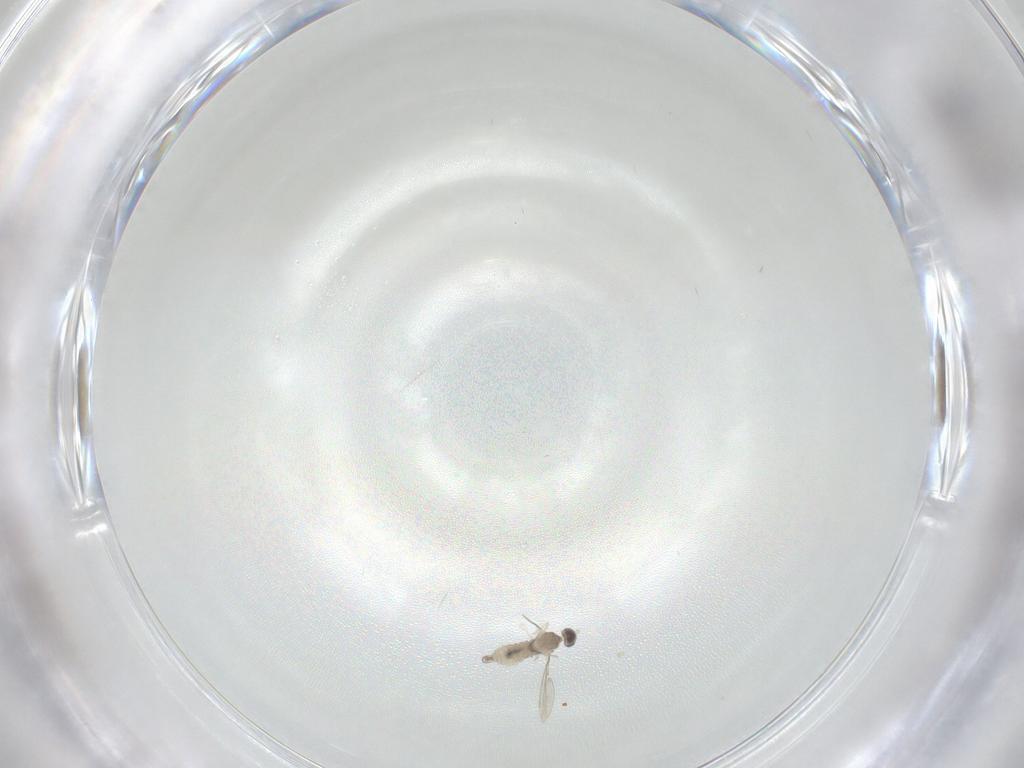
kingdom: Animalia
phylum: Arthropoda
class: Insecta
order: Diptera
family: Cecidomyiidae
